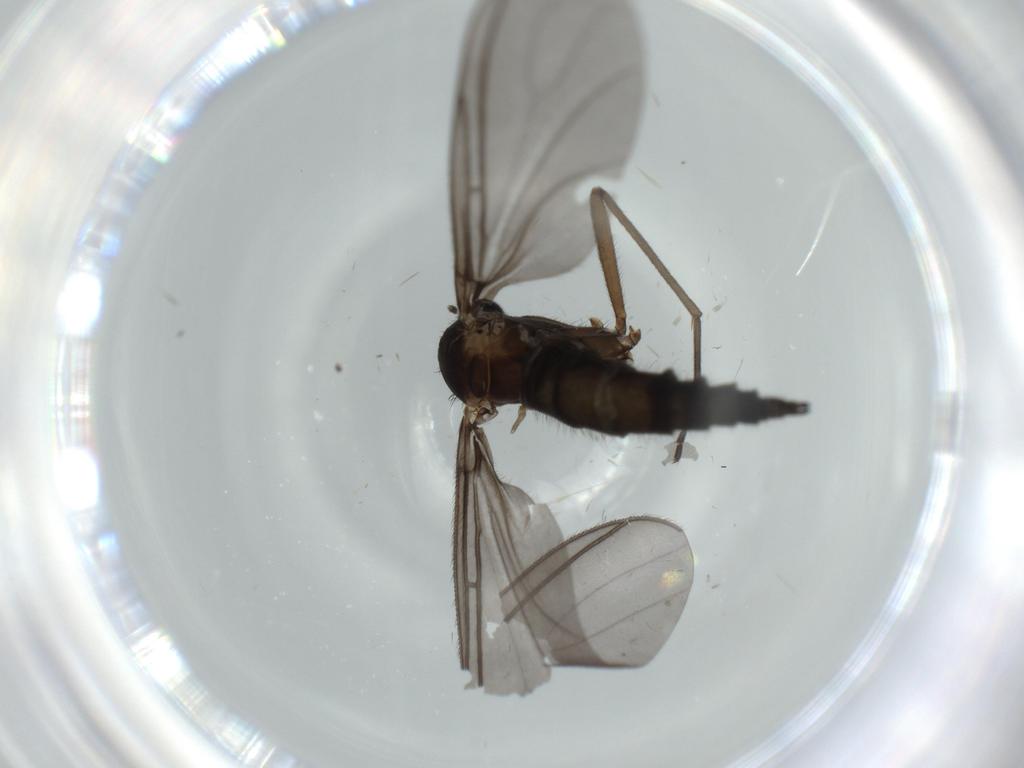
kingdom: Animalia
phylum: Arthropoda
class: Insecta
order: Diptera
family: Sciaridae
